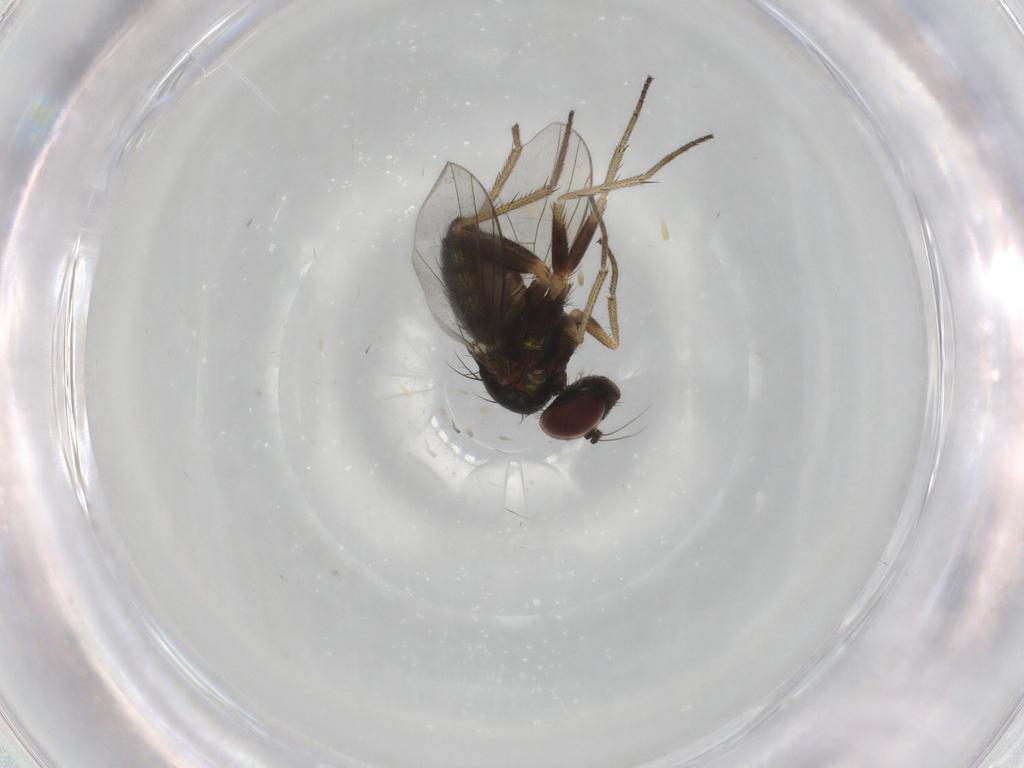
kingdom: Animalia
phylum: Arthropoda
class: Insecta
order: Diptera
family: Dolichopodidae
